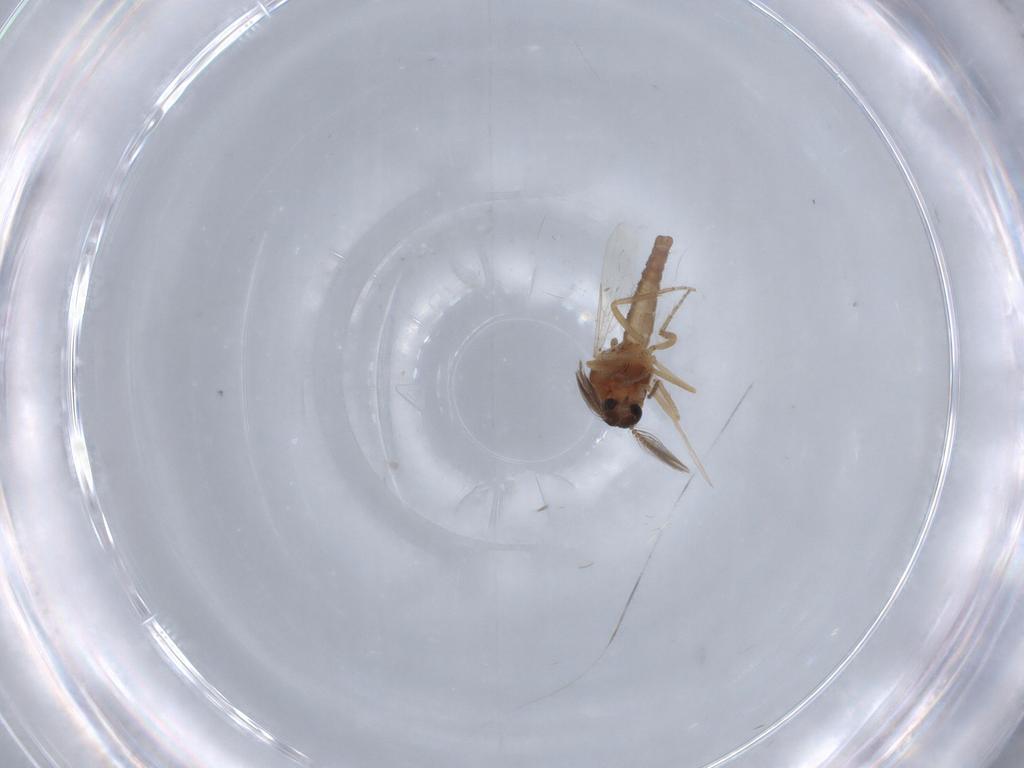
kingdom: Animalia
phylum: Arthropoda
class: Insecta
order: Diptera
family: Ceratopogonidae
